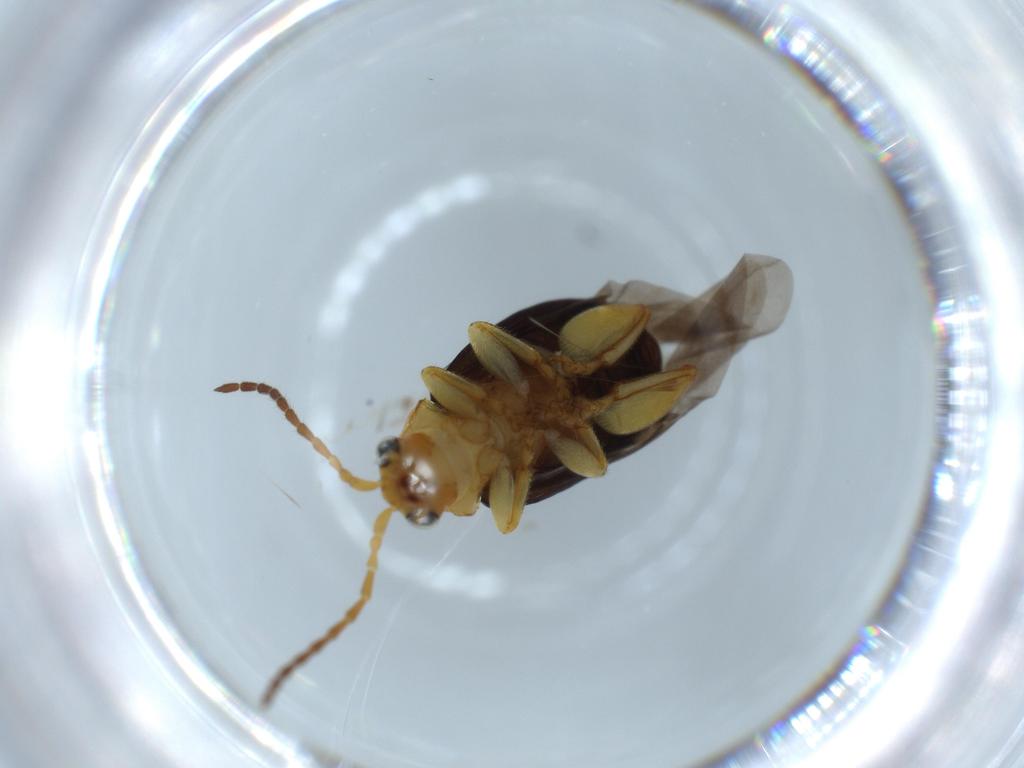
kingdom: Animalia
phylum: Arthropoda
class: Insecta
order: Coleoptera
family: Chrysomelidae
